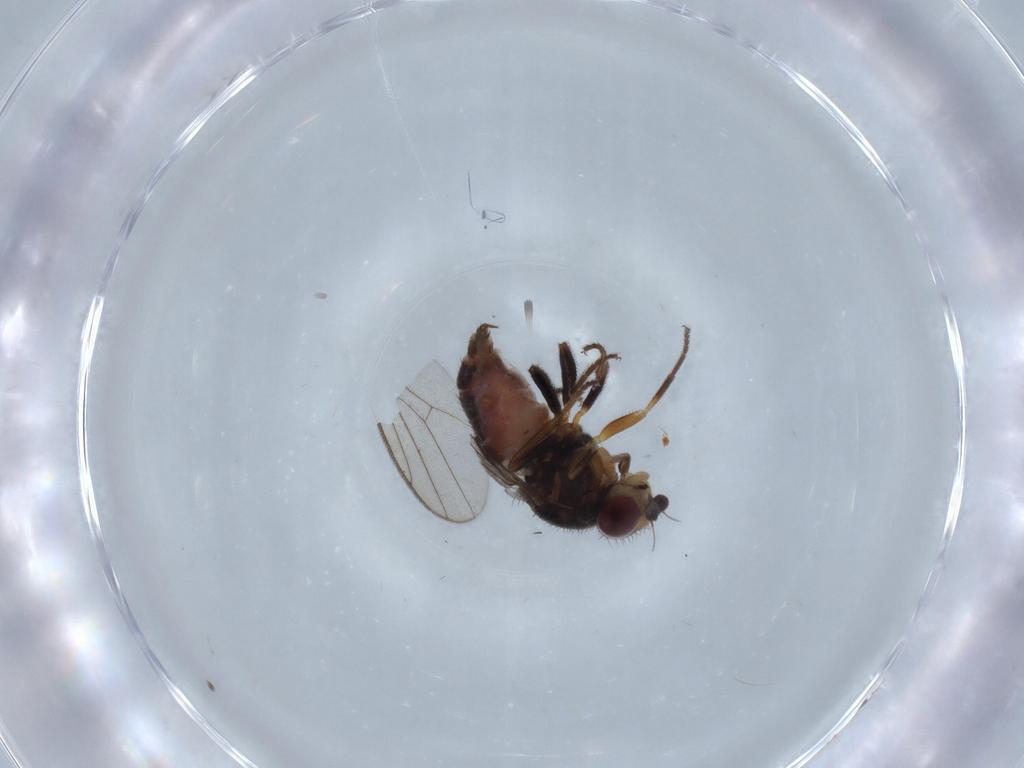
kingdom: Animalia
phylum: Arthropoda
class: Insecta
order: Diptera
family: Chloropidae
